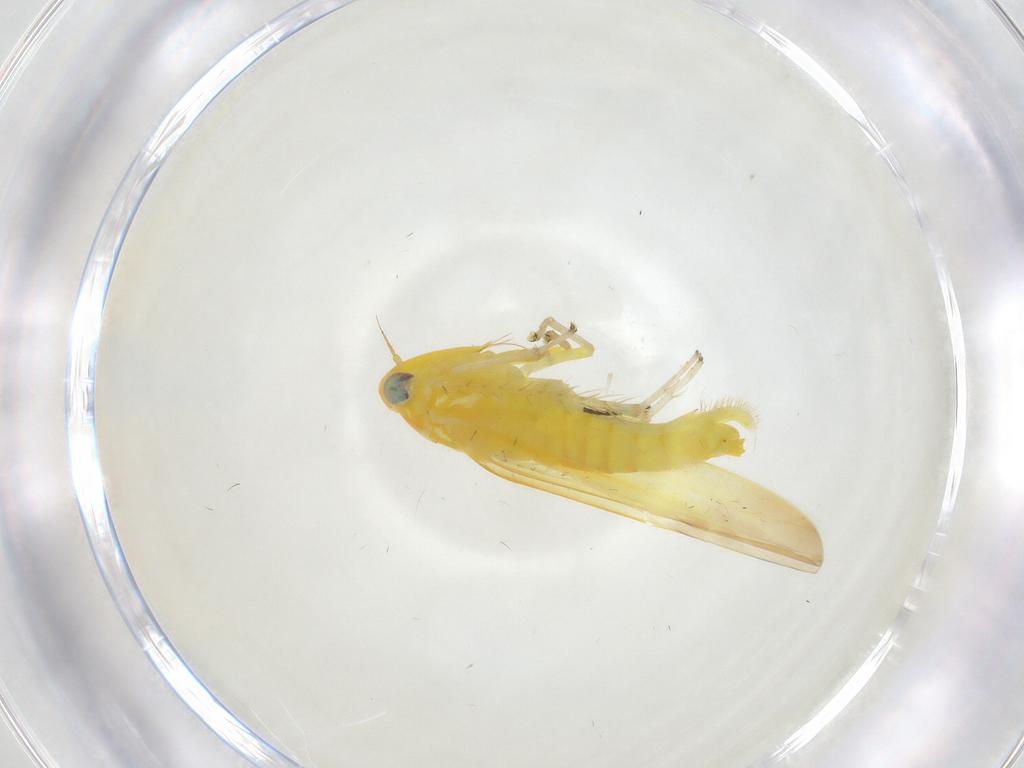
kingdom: Animalia
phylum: Arthropoda
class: Insecta
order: Hemiptera
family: Cicadellidae
